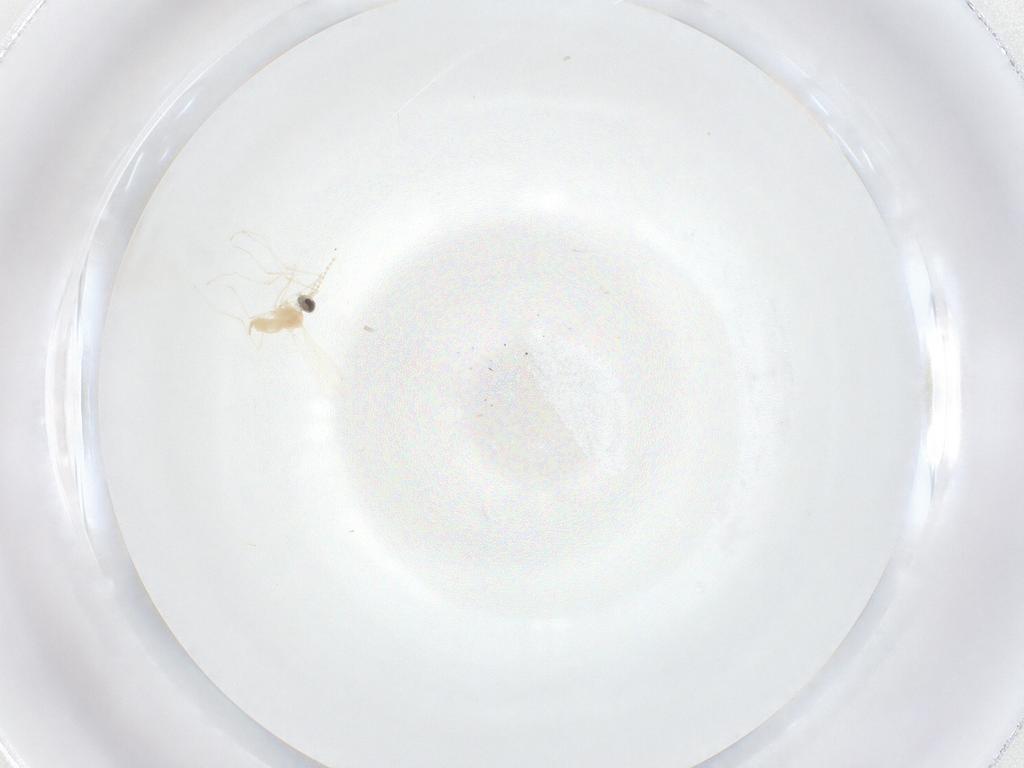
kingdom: Animalia
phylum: Arthropoda
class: Insecta
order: Diptera
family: Cecidomyiidae
